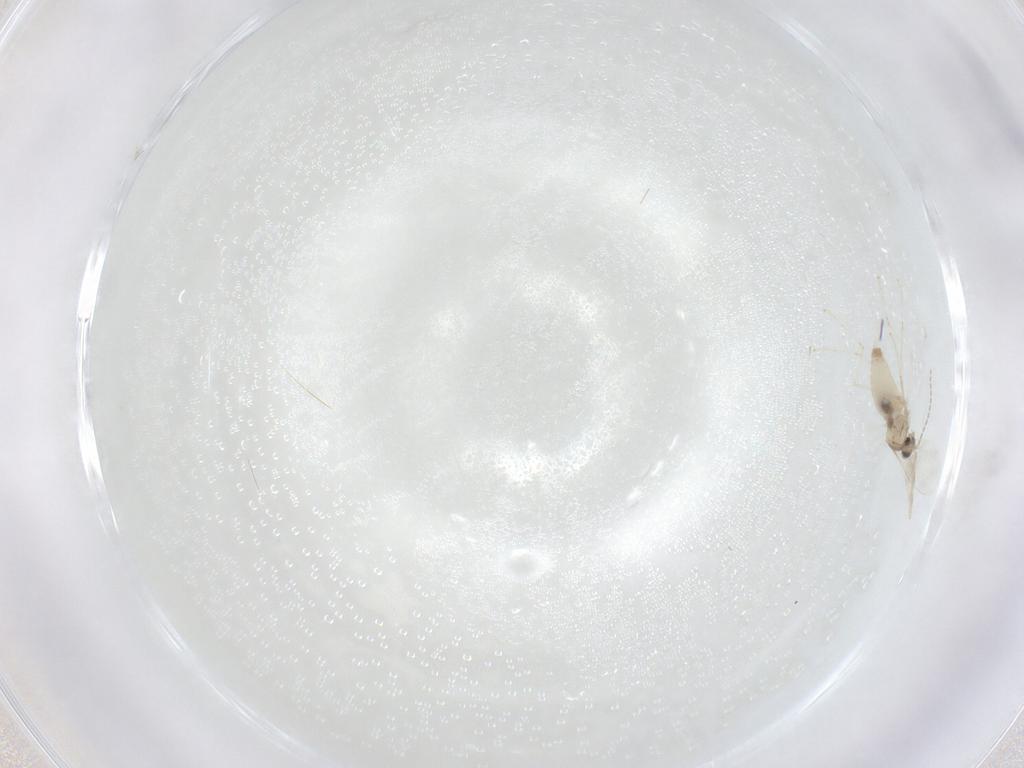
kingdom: Animalia
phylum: Arthropoda
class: Insecta
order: Diptera
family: Cecidomyiidae
